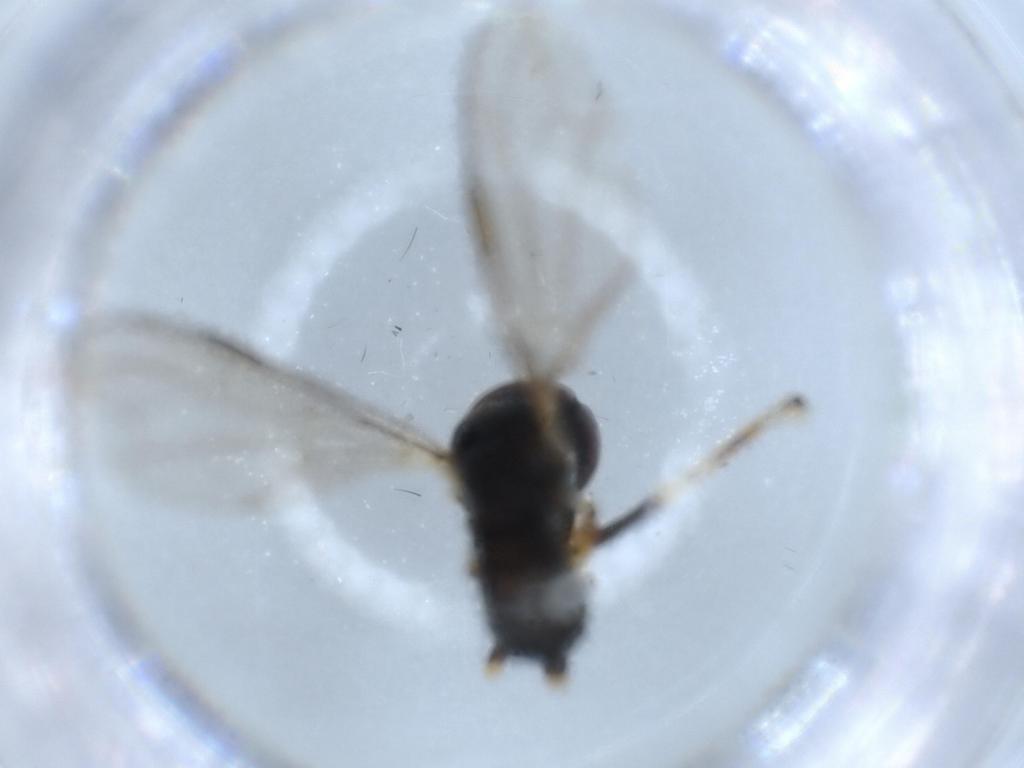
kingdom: Animalia
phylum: Arthropoda
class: Insecta
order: Diptera
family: Pipunculidae
